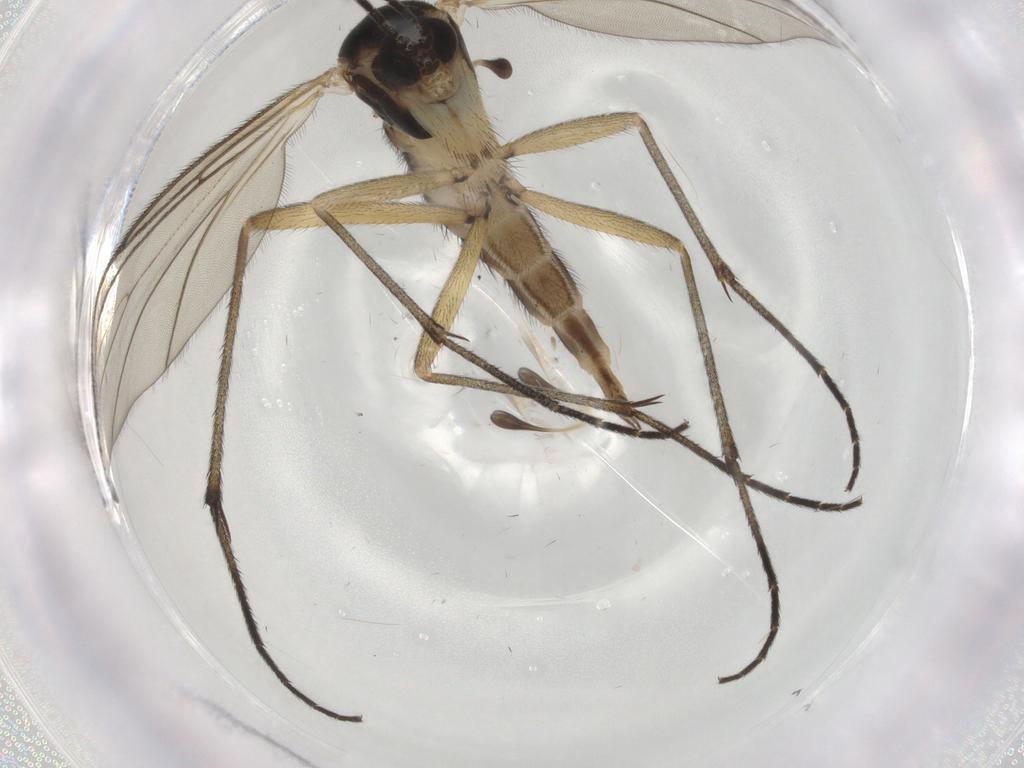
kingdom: Animalia
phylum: Arthropoda
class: Insecta
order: Diptera
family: Sciaridae
